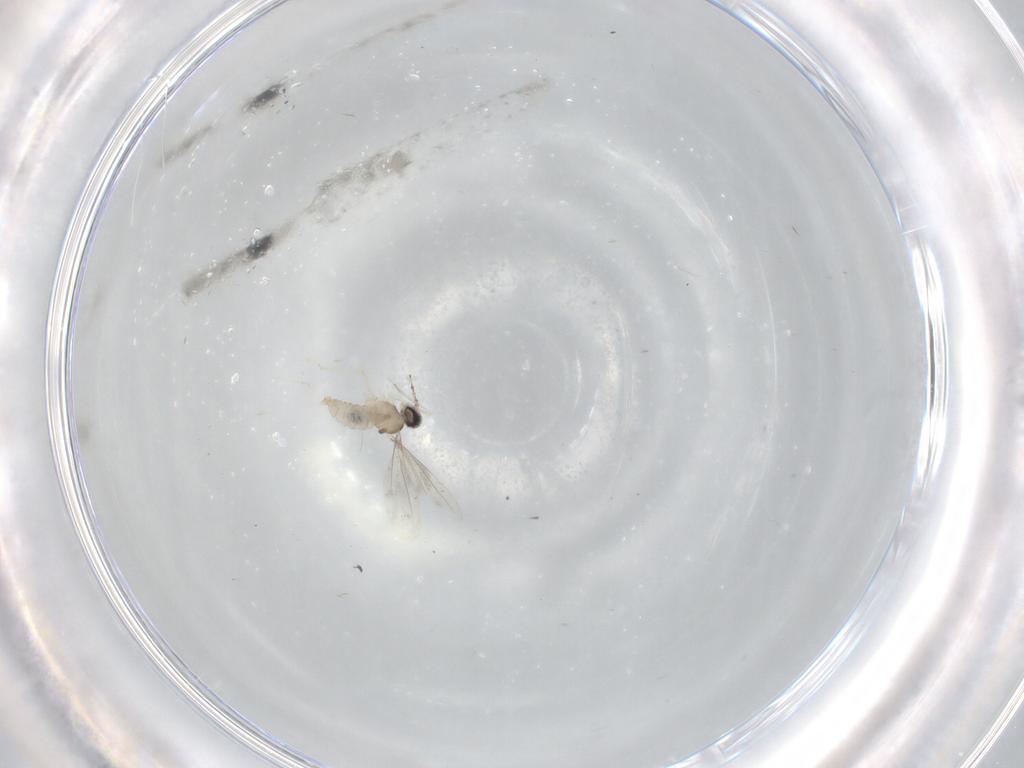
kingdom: Animalia
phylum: Arthropoda
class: Insecta
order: Diptera
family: Cecidomyiidae
